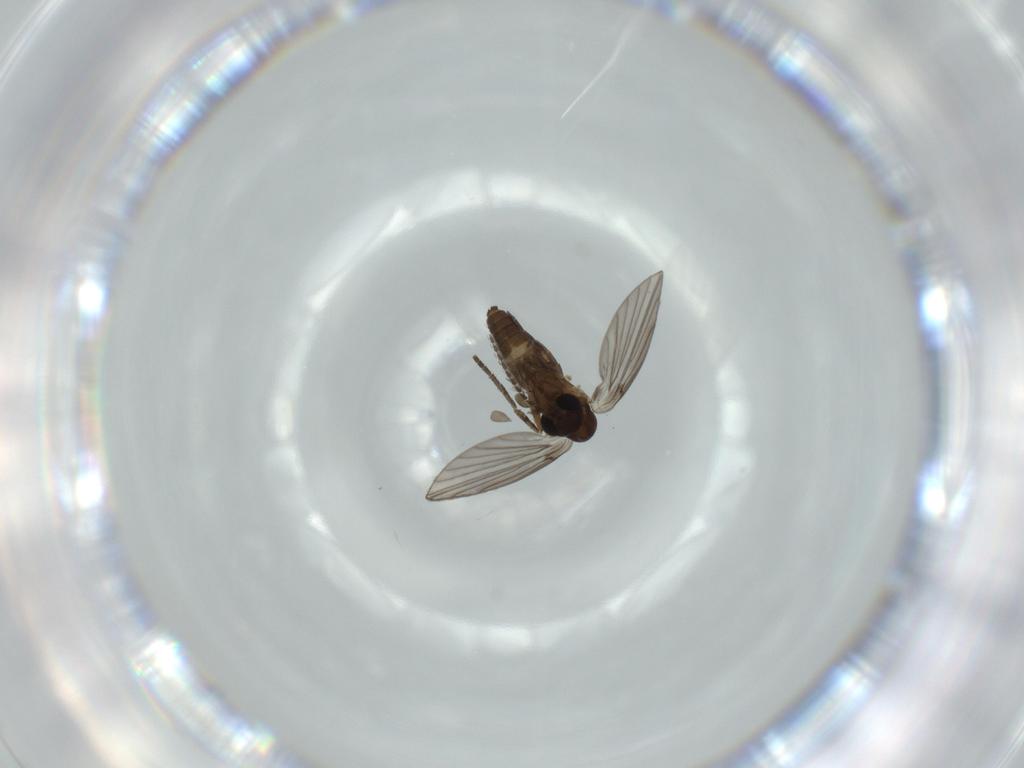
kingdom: Animalia
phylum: Arthropoda
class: Insecta
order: Diptera
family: Psychodidae
